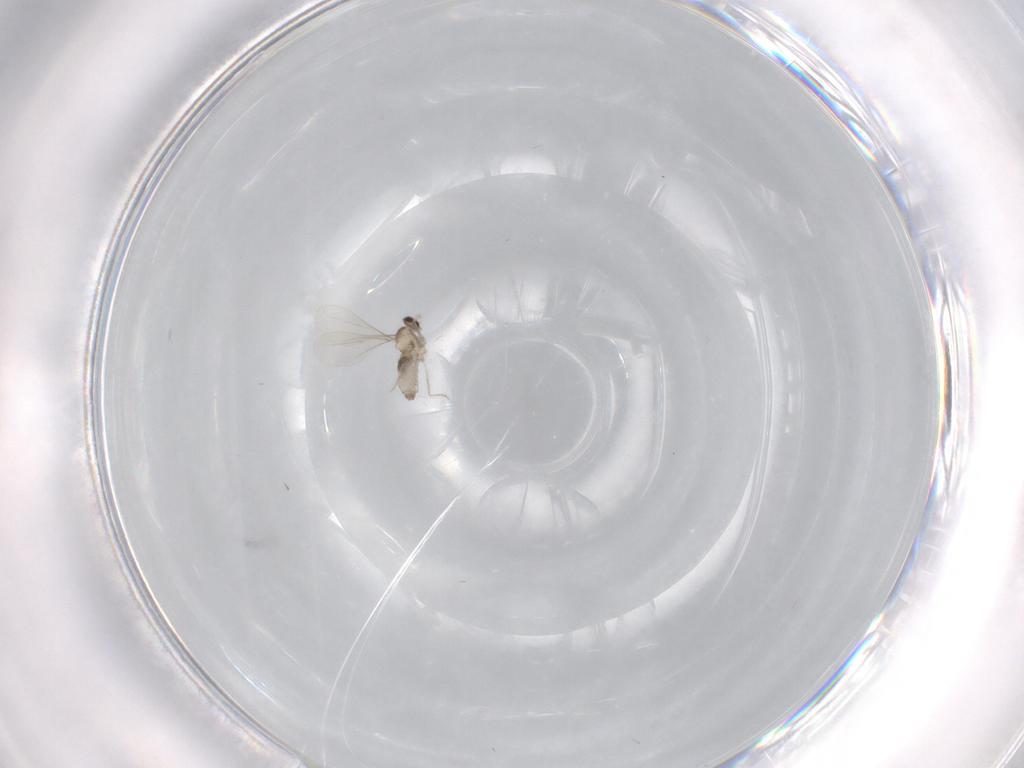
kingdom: Animalia
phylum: Arthropoda
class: Insecta
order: Diptera
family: Cecidomyiidae
